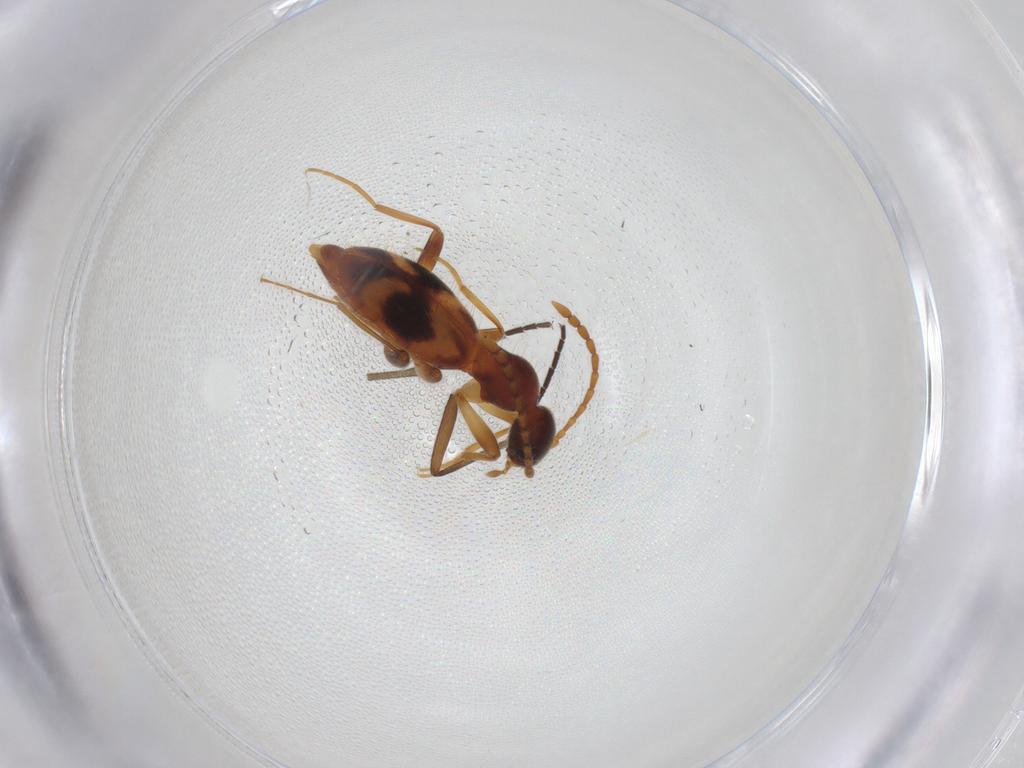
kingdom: Animalia
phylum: Arthropoda
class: Insecta
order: Coleoptera
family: Anthicidae
